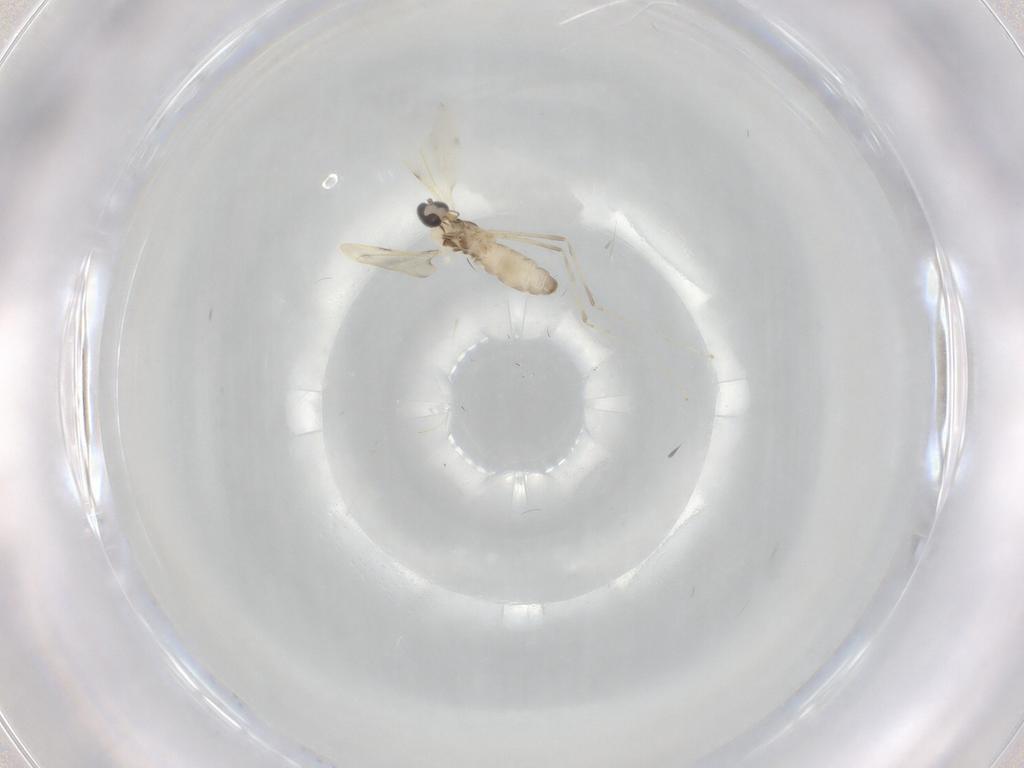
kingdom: Animalia
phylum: Arthropoda
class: Insecta
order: Diptera
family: Cecidomyiidae
